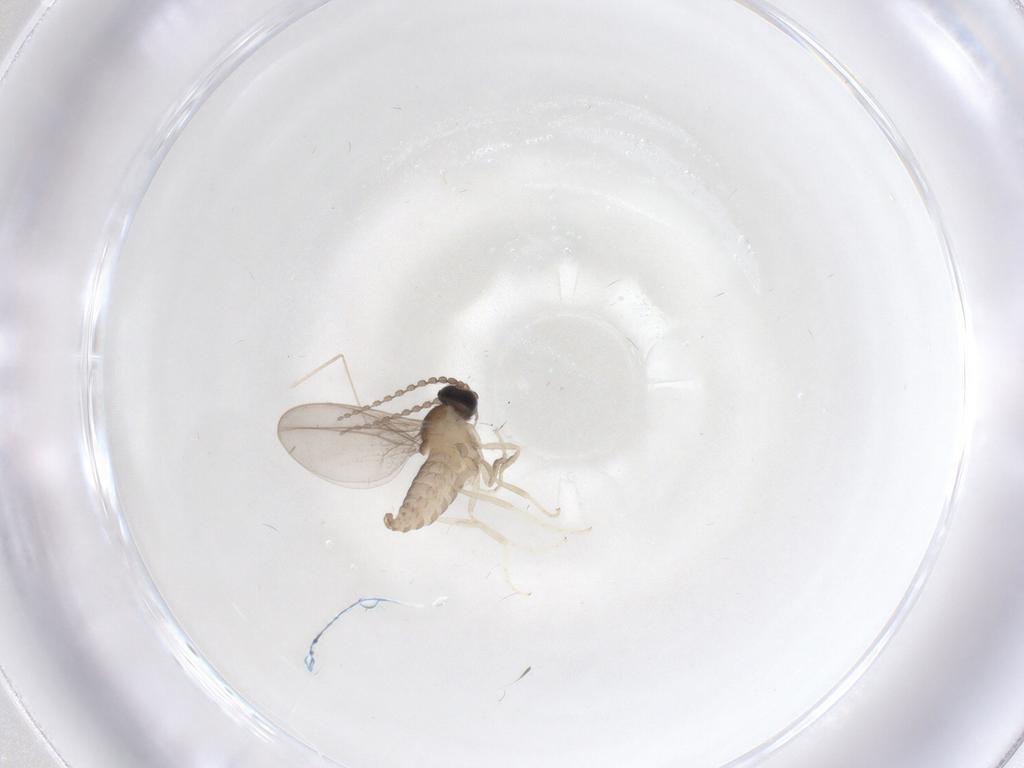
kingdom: Animalia
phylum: Arthropoda
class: Insecta
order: Diptera
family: Cecidomyiidae
